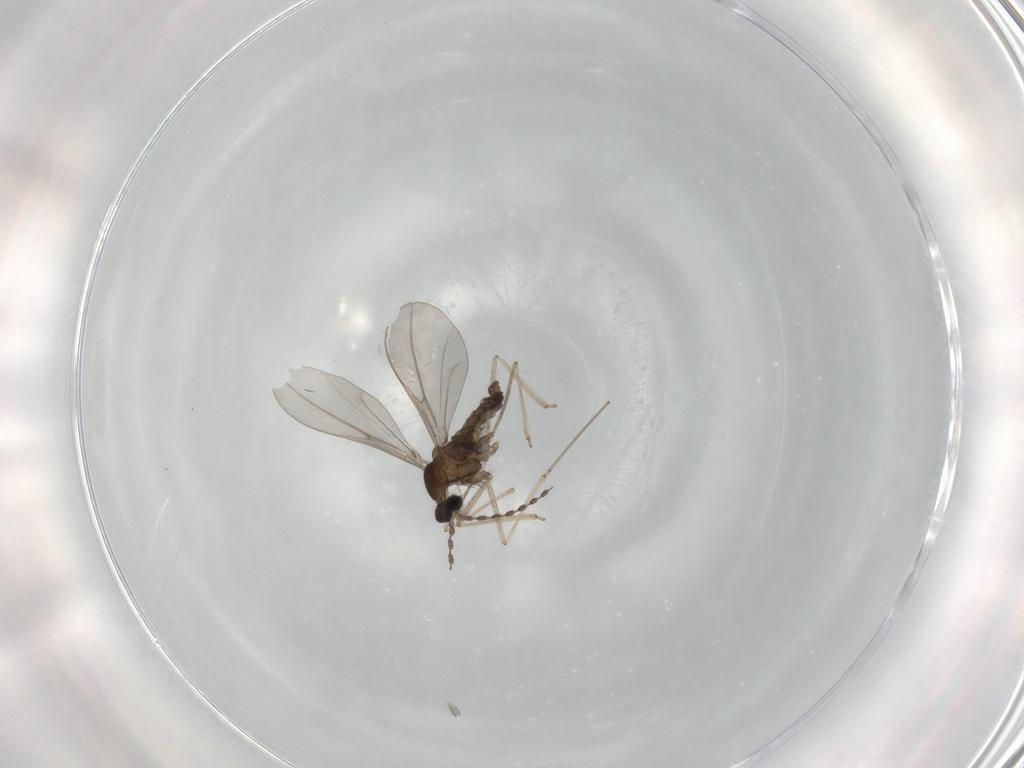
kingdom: Animalia
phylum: Arthropoda
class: Insecta
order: Diptera
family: Cecidomyiidae
